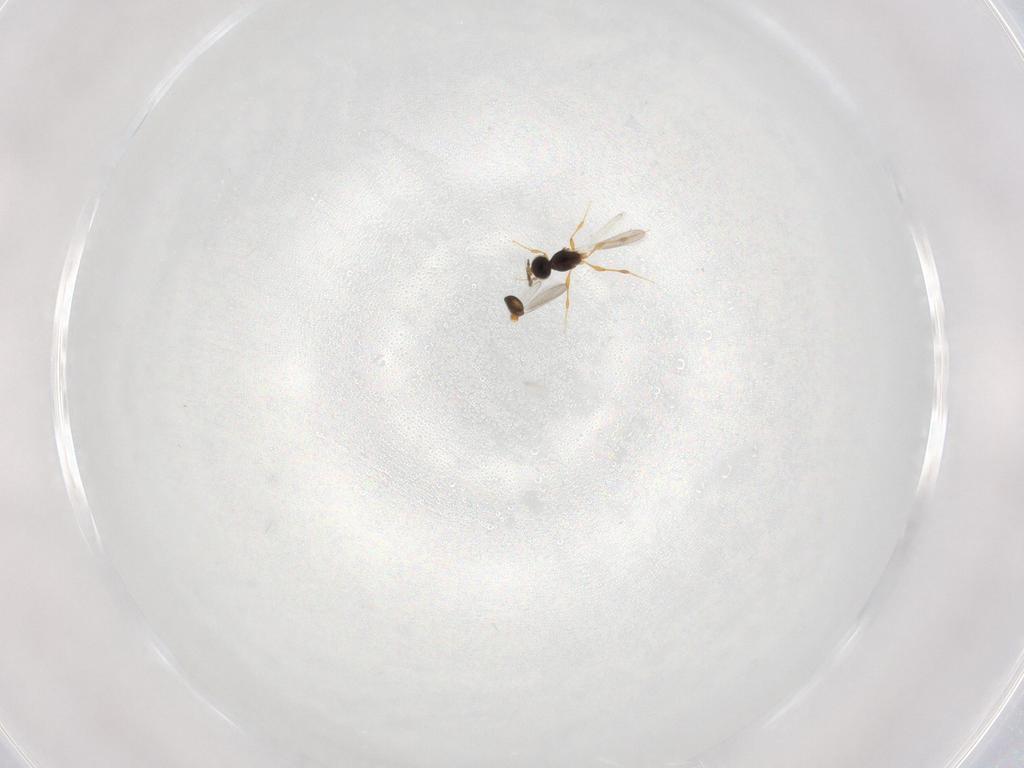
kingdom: Animalia
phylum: Arthropoda
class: Insecta
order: Hymenoptera
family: Platygastridae
